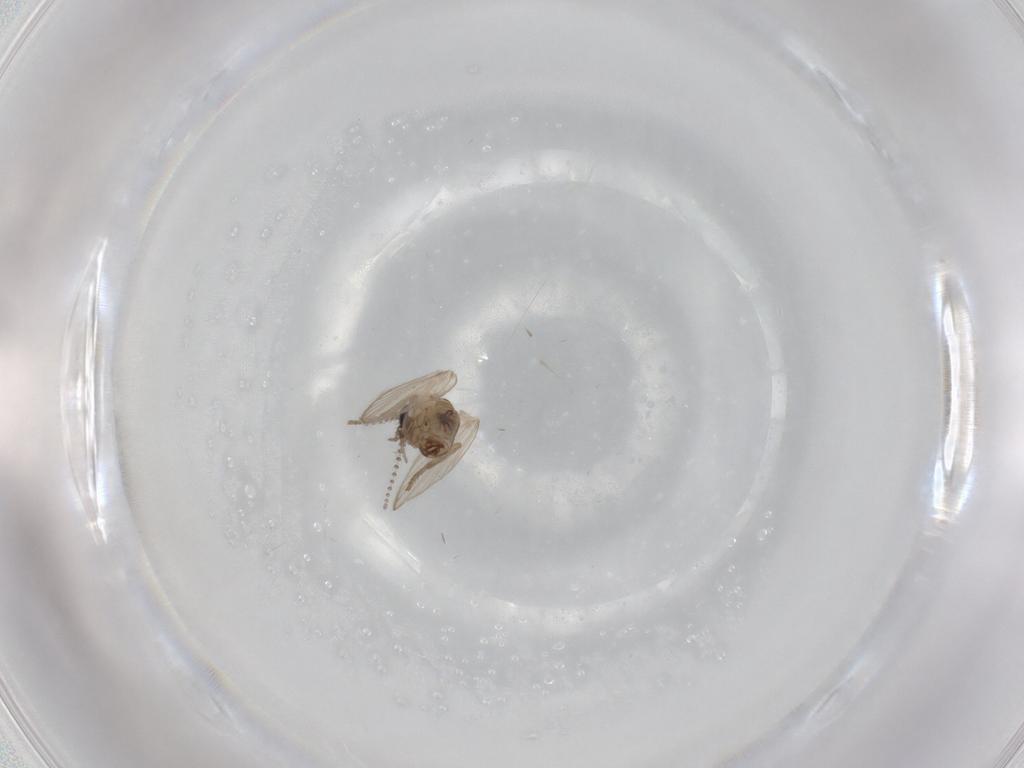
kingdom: Animalia
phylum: Arthropoda
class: Insecta
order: Diptera
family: Psychodidae
